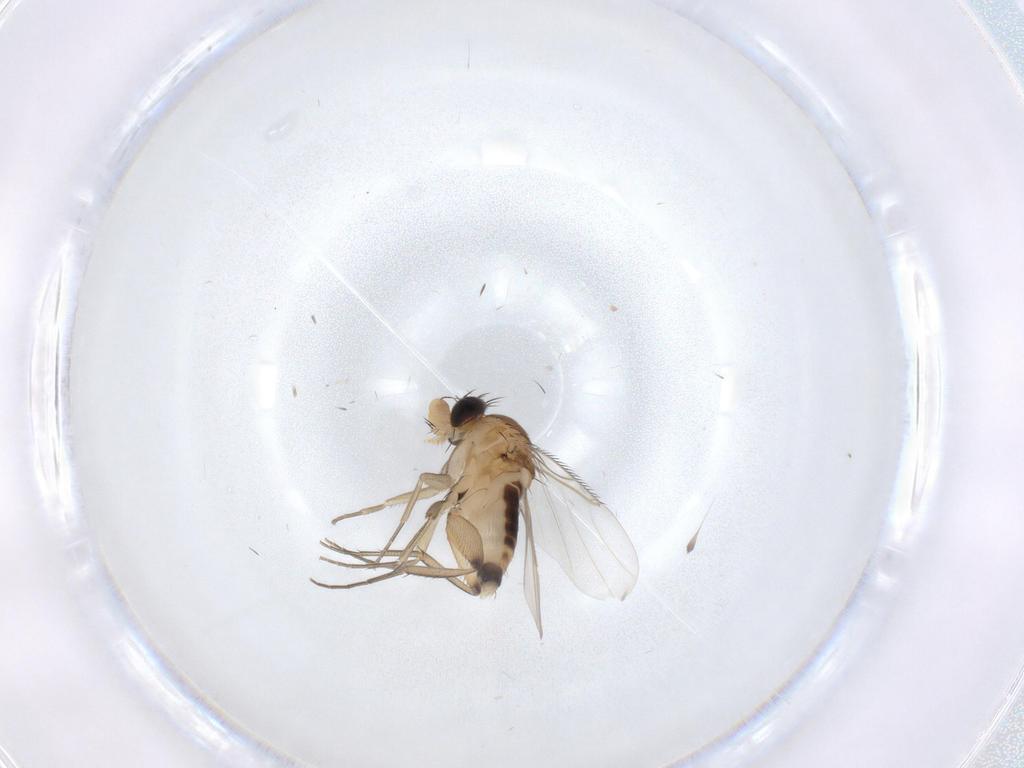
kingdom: Animalia
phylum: Arthropoda
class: Insecta
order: Diptera
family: Phoridae
